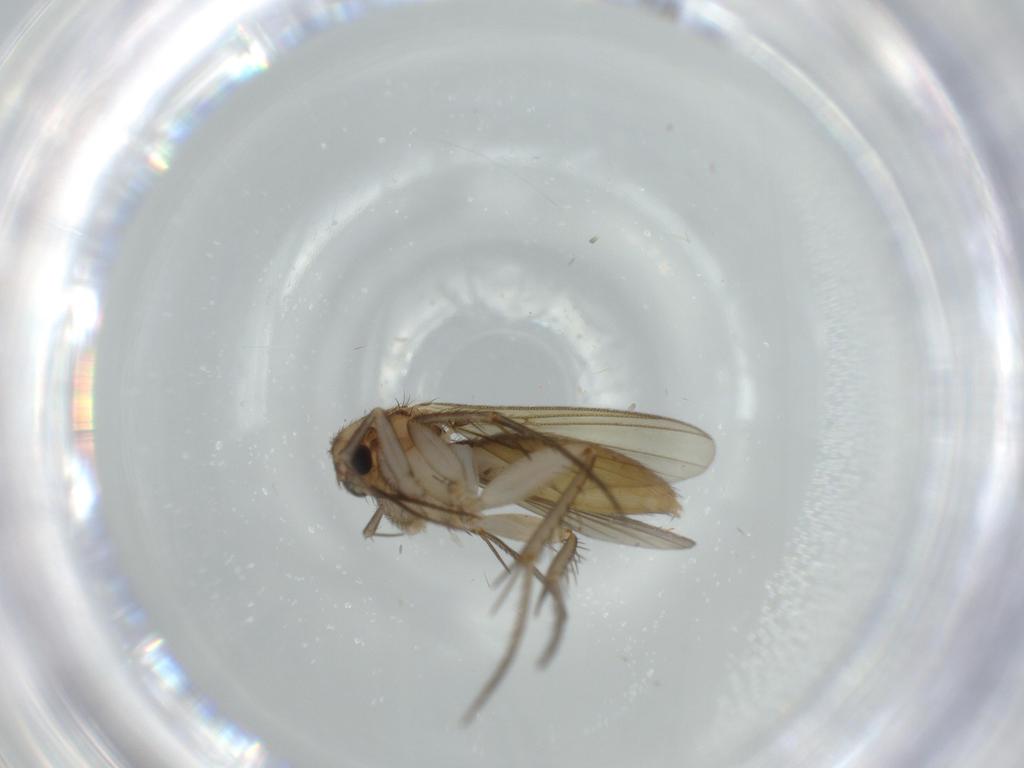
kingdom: Animalia
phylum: Arthropoda
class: Insecta
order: Diptera
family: Mycetophilidae
